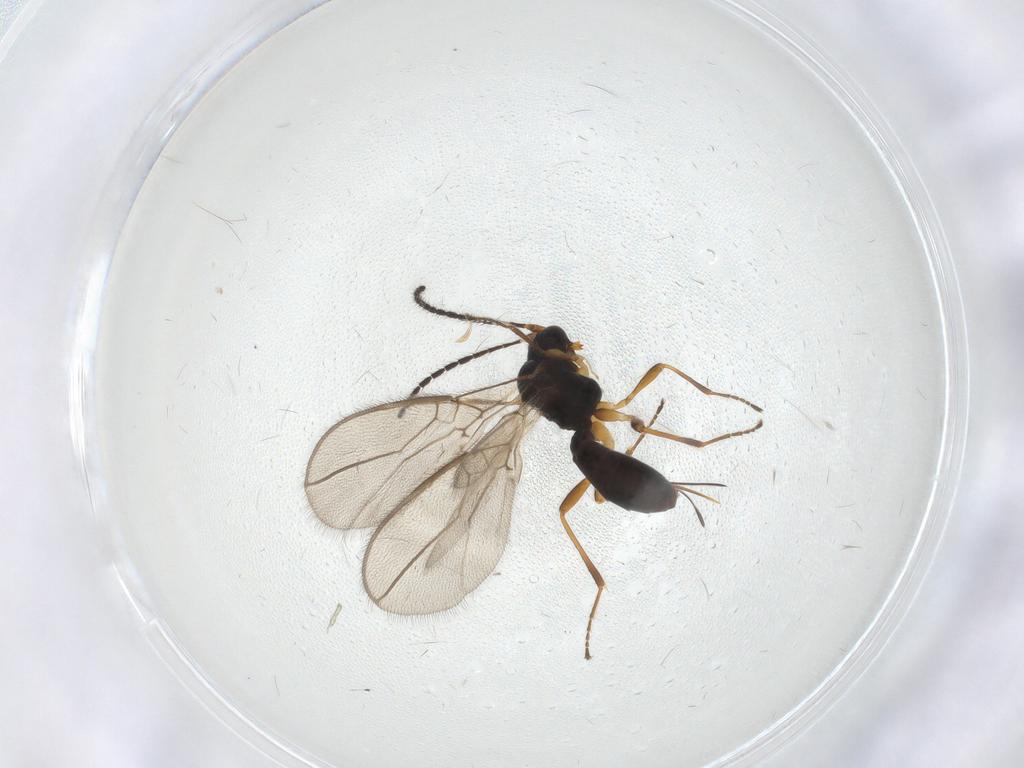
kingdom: Animalia
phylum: Arthropoda
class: Insecta
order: Hymenoptera
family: Braconidae
